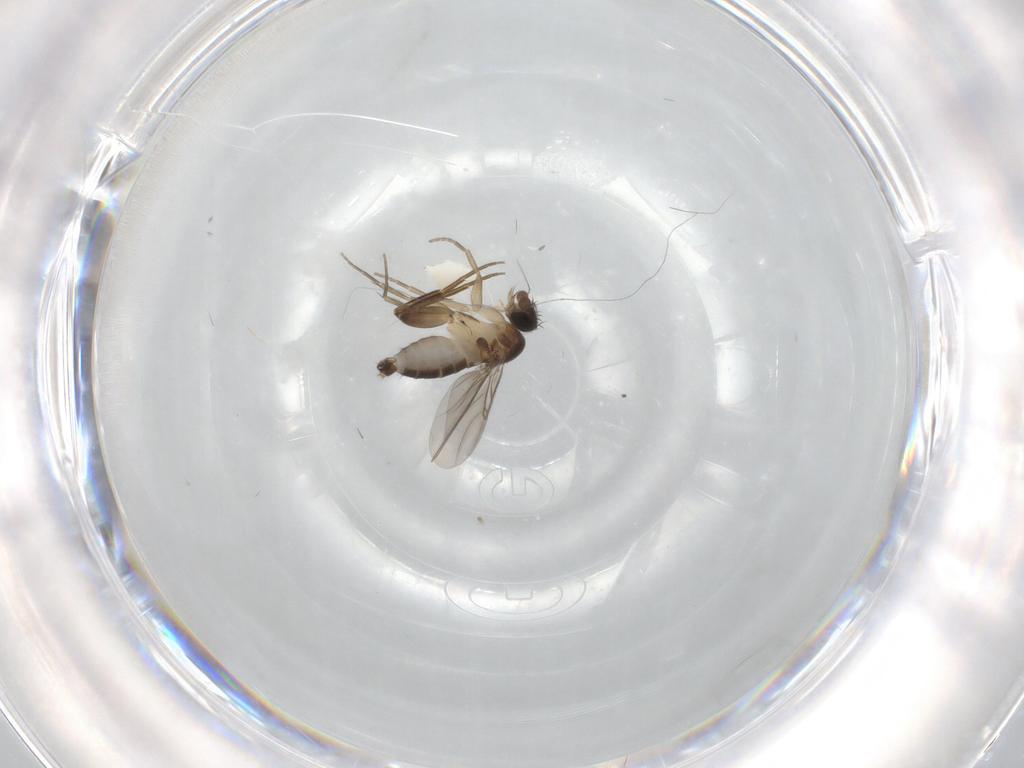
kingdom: Animalia
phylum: Arthropoda
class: Insecta
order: Diptera
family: Phoridae
